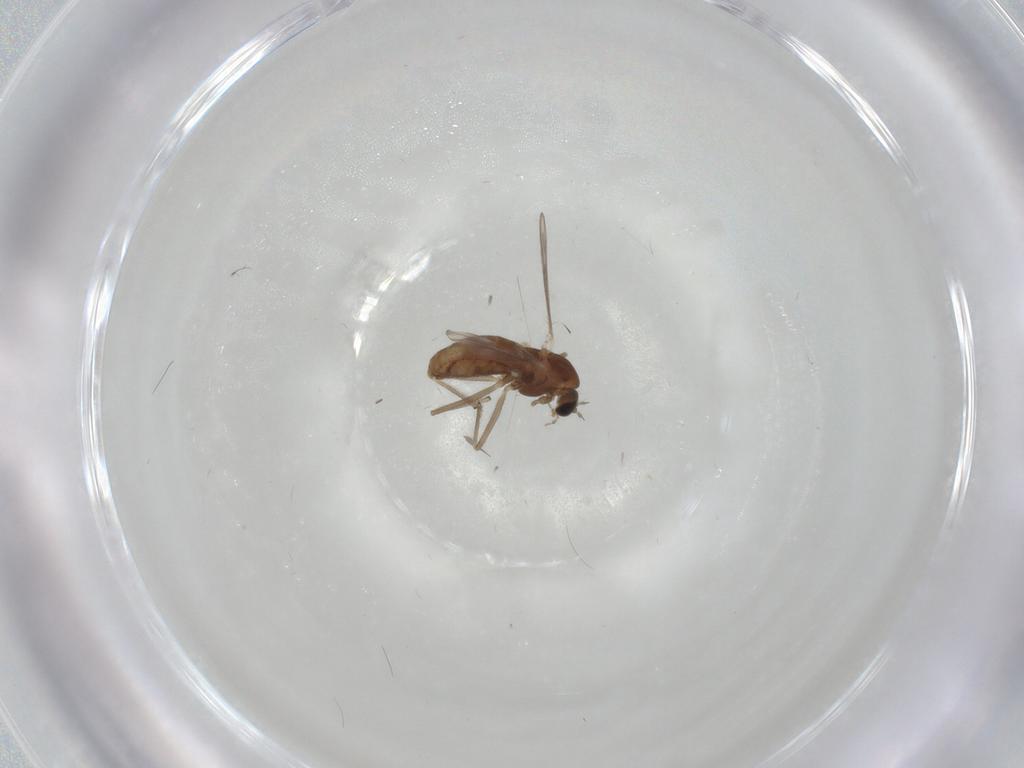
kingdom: Animalia
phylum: Arthropoda
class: Insecta
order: Diptera
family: Chironomidae
